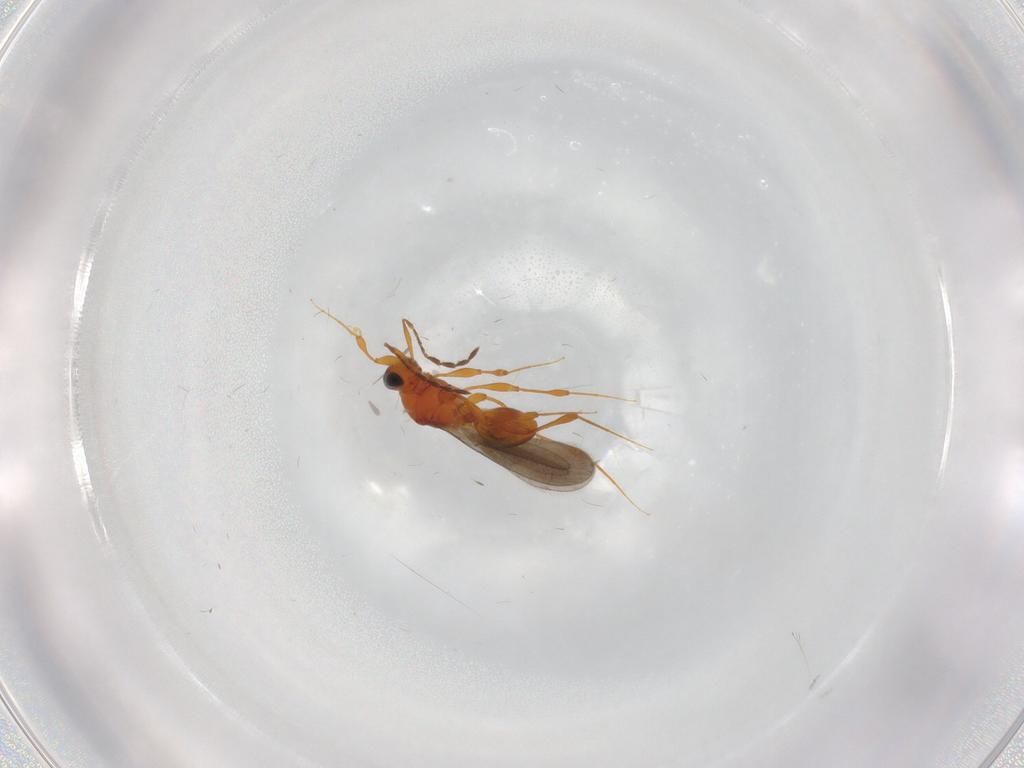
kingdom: Animalia
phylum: Arthropoda
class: Insecta
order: Hymenoptera
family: Platygastridae
